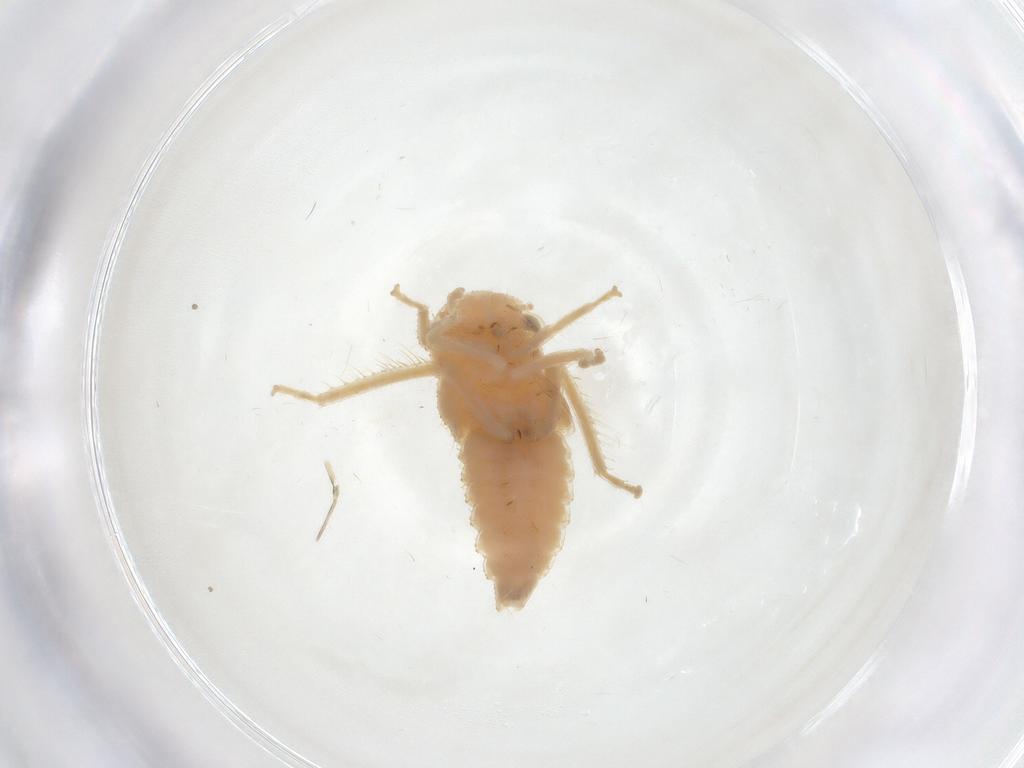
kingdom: Animalia
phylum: Arthropoda
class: Insecta
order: Hemiptera
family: Cicadellidae
